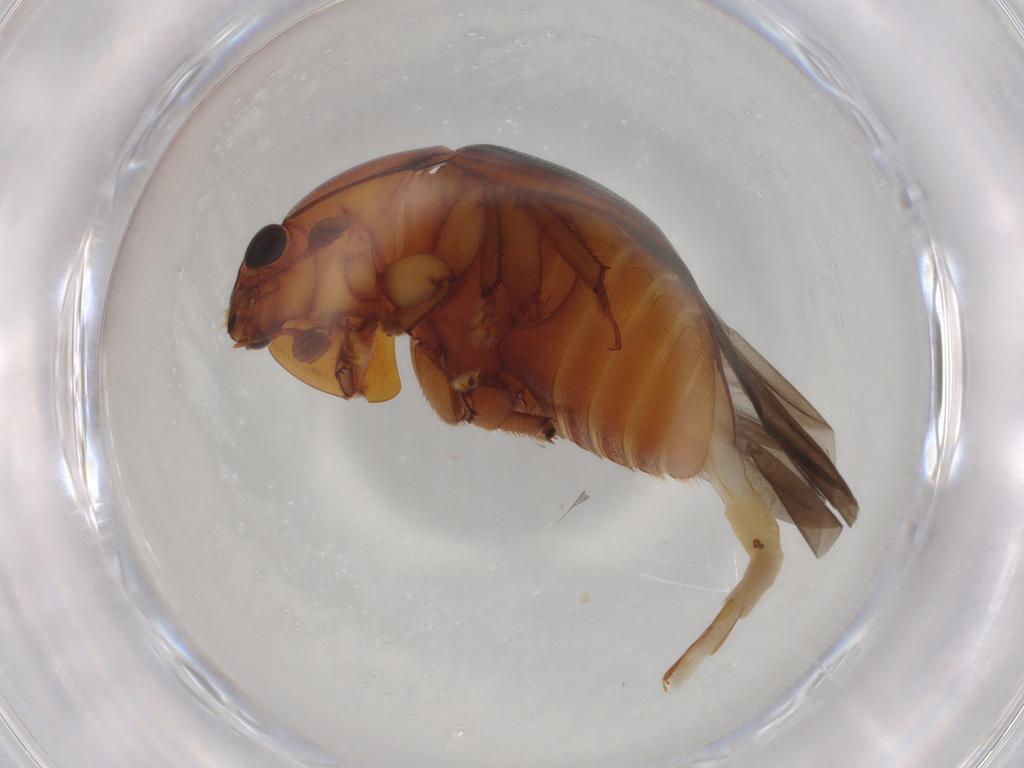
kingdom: Animalia
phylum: Arthropoda
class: Insecta
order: Coleoptera
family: Nitidulidae
